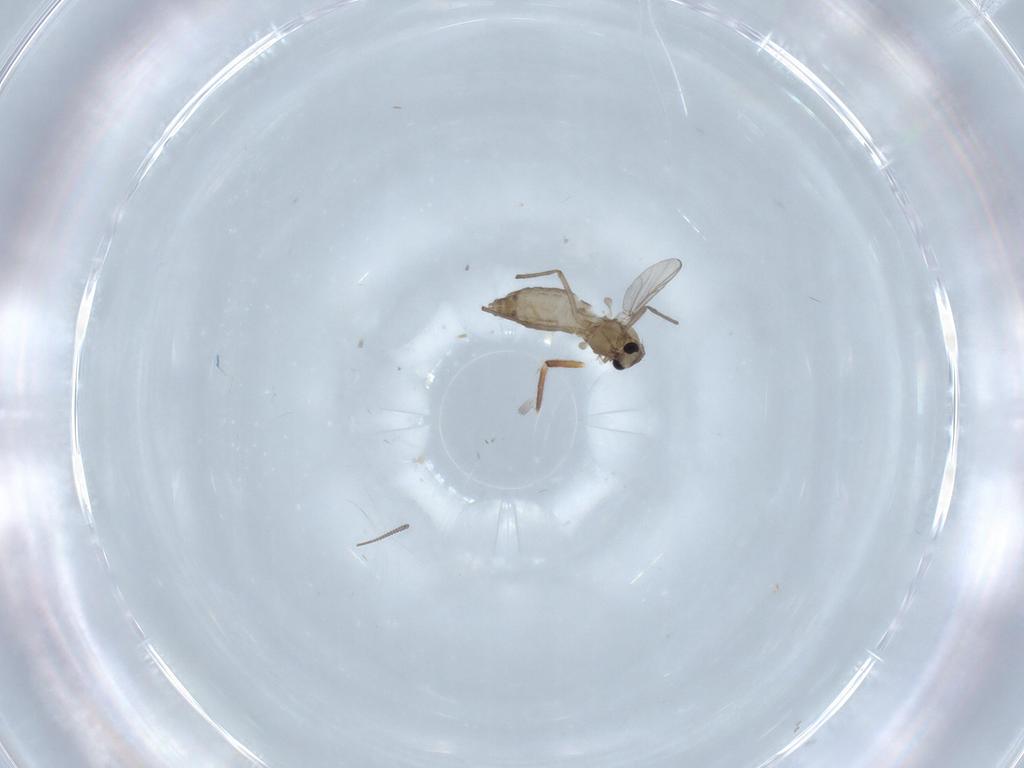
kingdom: Animalia
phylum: Arthropoda
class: Insecta
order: Diptera
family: Chironomidae
